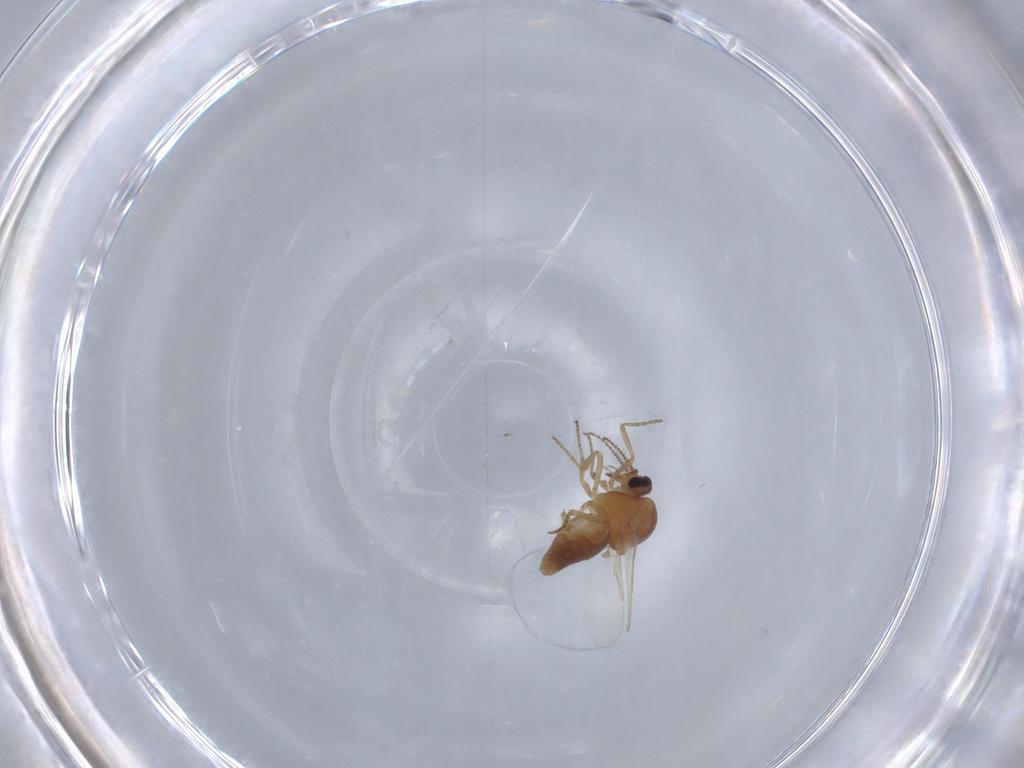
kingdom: Animalia
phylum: Arthropoda
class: Insecta
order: Diptera
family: Ceratopogonidae
